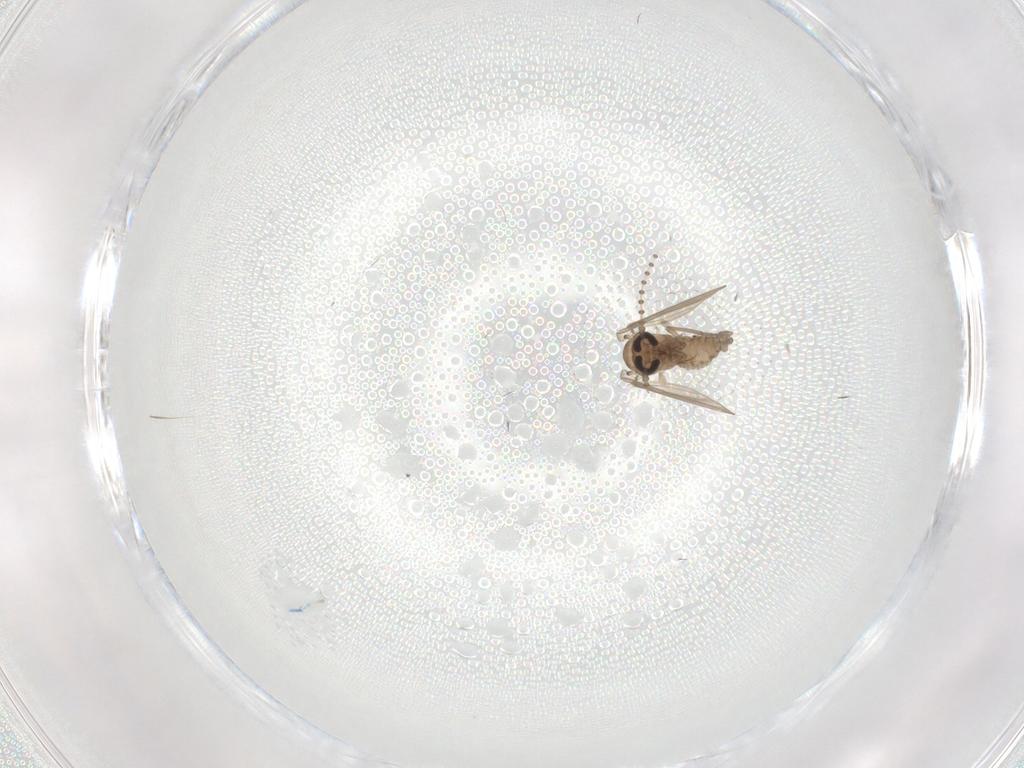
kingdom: Animalia
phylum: Arthropoda
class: Insecta
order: Diptera
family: Psychodidae
